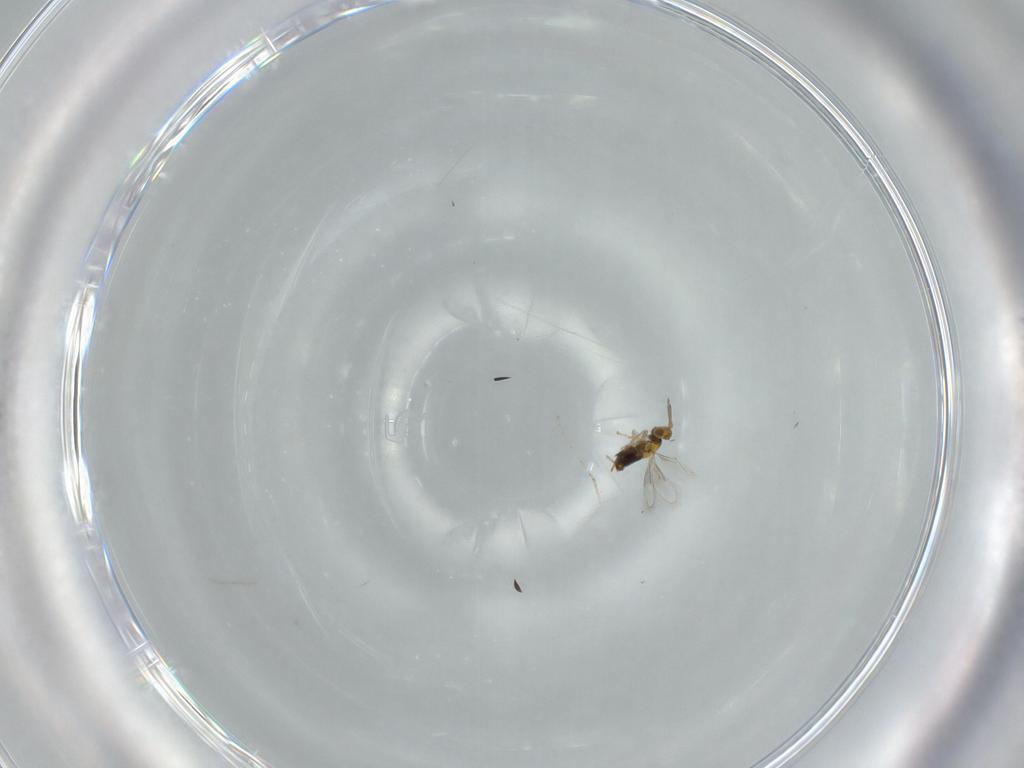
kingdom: Animalia
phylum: Arthropoda
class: Insecta
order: Hymenoptera
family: Aphelinidae
